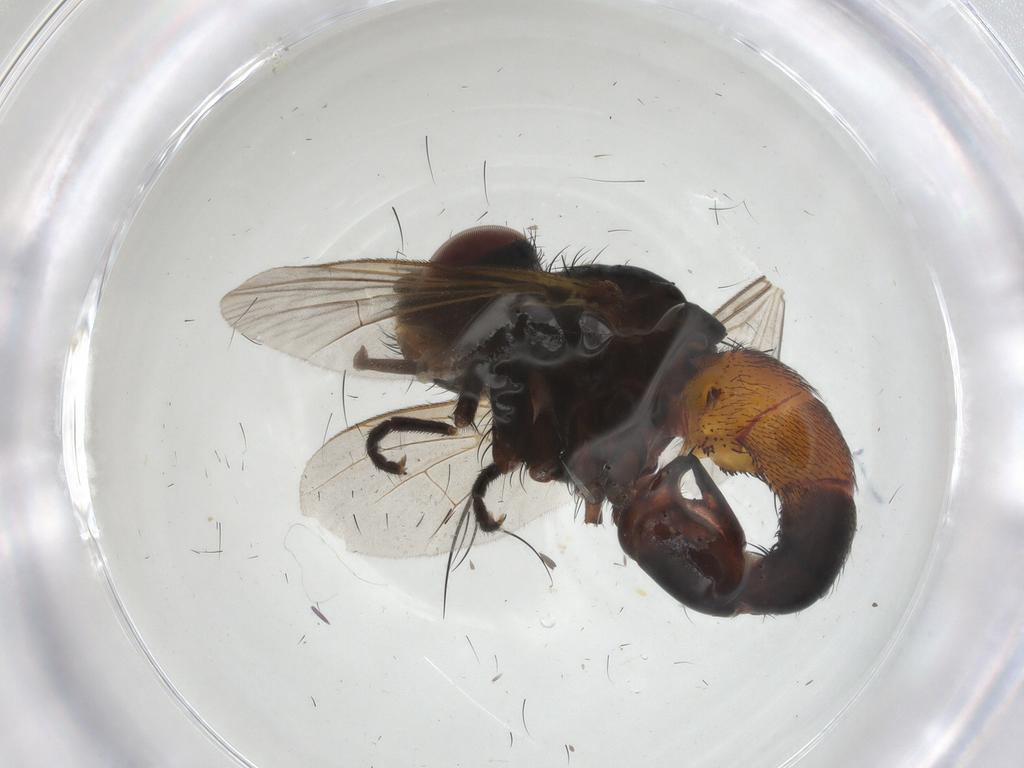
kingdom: Animalia
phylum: Arthropoda
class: Insecta
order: Diptera
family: Tachinidae
